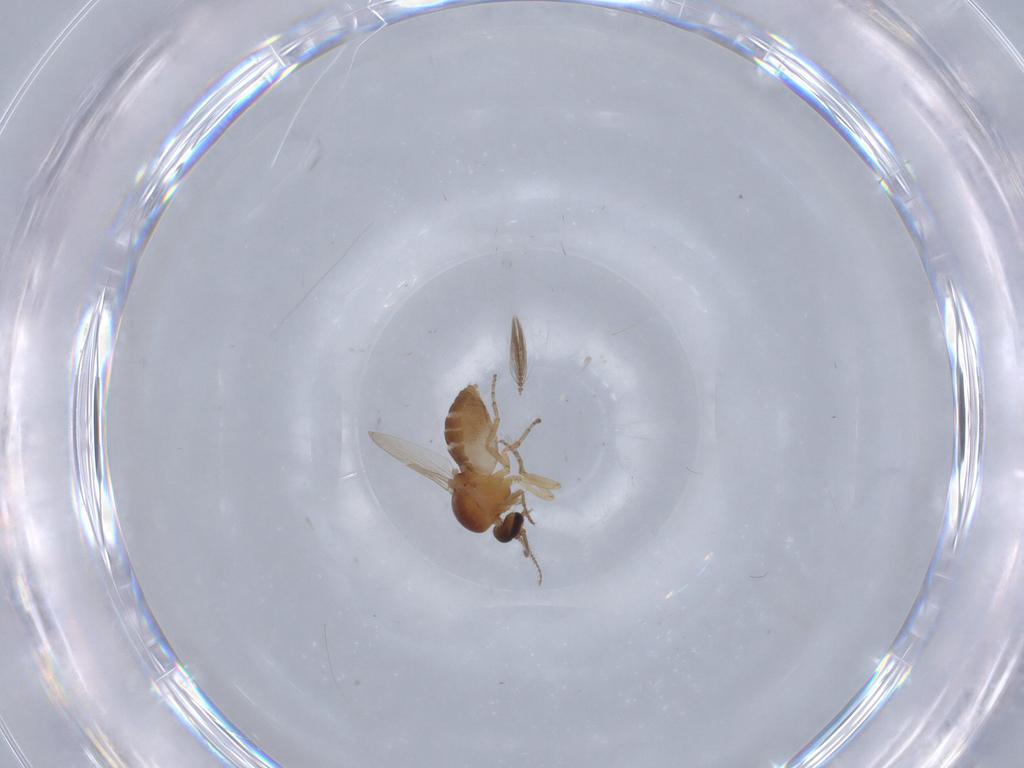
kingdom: Animalia
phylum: Arthropoda
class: Insecta
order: Diptera
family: Ceratopogonidae
